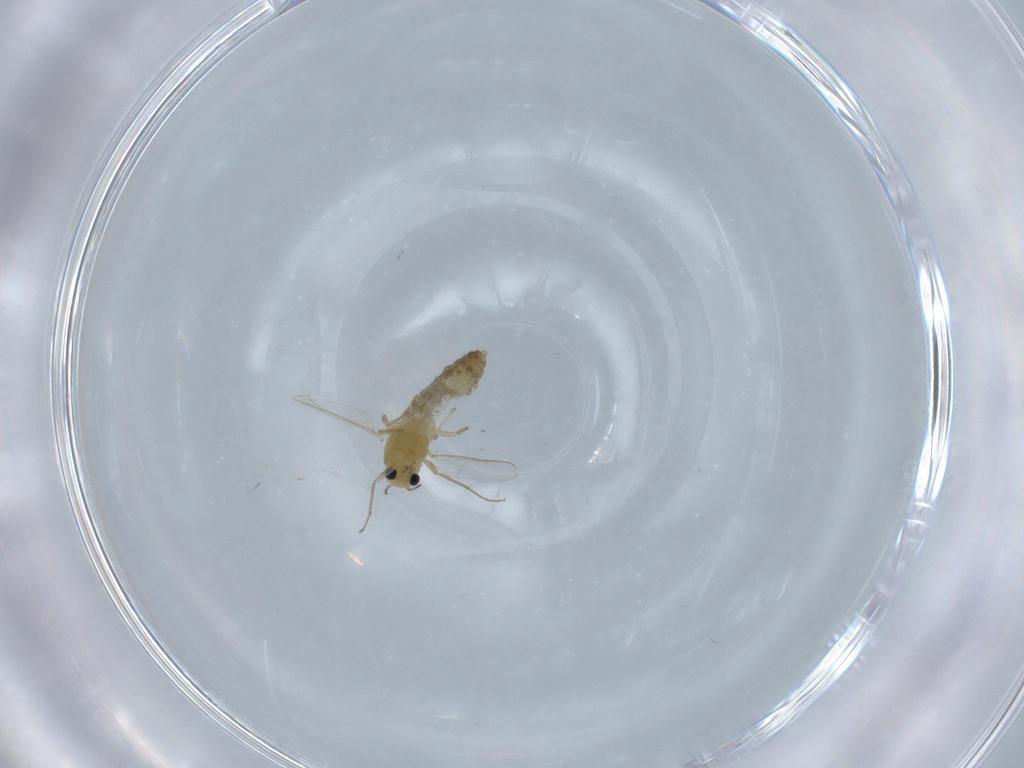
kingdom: Animalia
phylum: Arthropoda
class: Insecta
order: Diptera
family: Chironomidae
